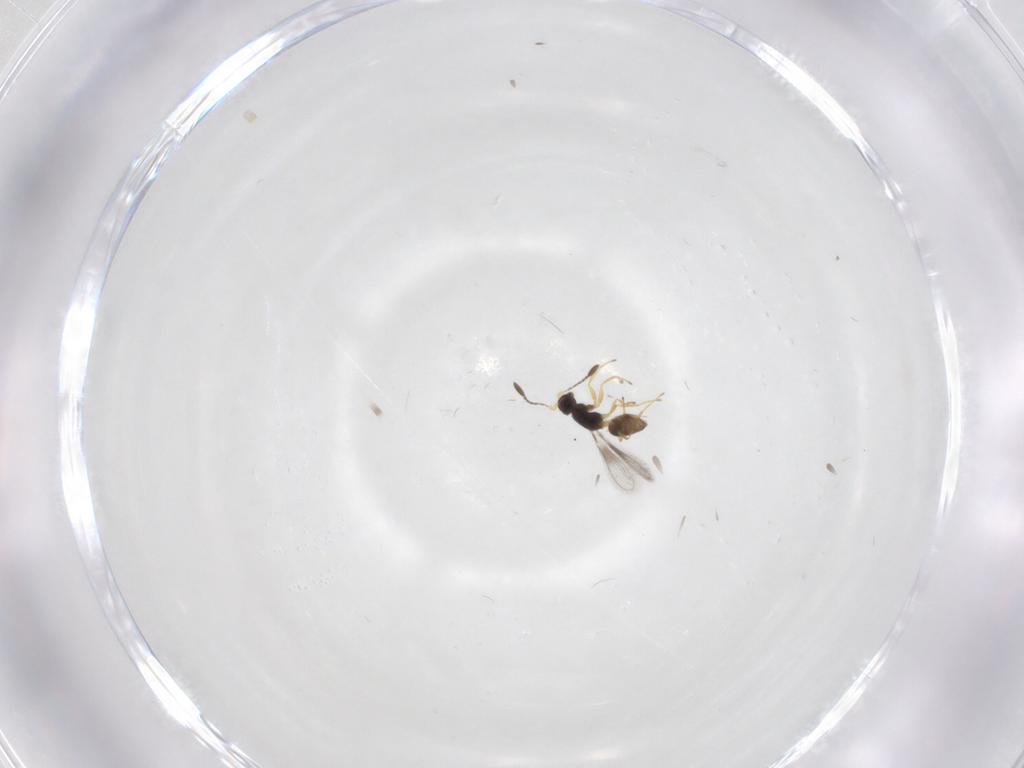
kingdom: Animalia
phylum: Arthropoda
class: Insecta
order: Hymenoptera
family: Mymaridae
